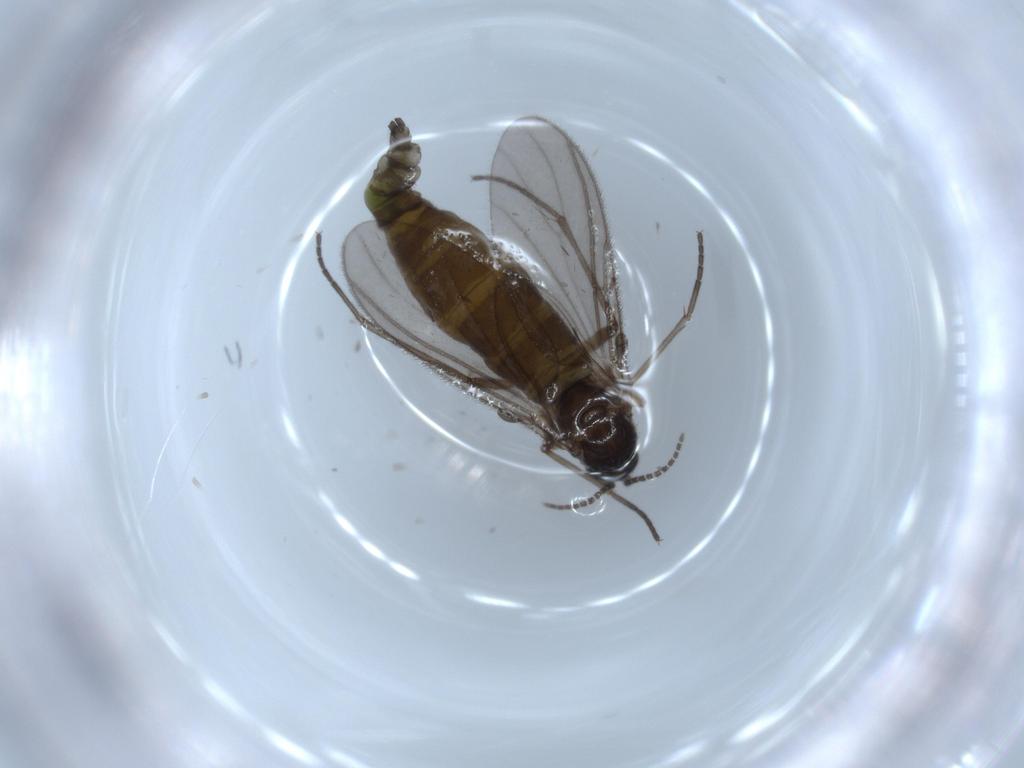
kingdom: Animalia
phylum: Arthropoda
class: Insecta
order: Diptera
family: Sciaridae
